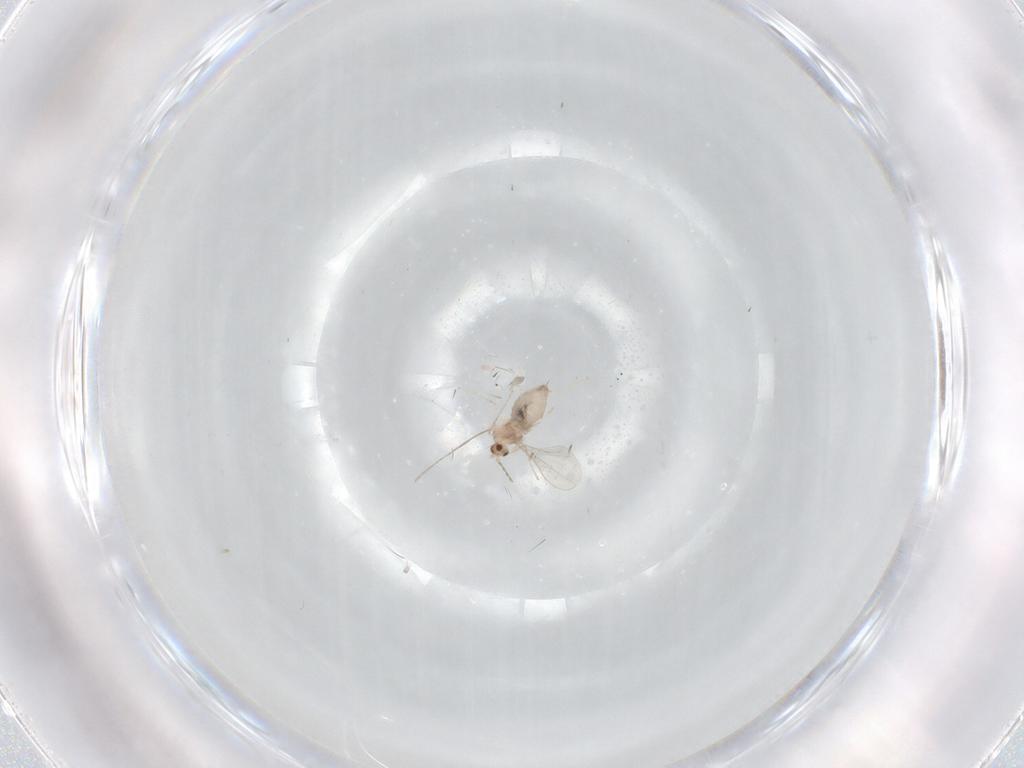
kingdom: Animalia
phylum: Arthropoda
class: Insecta
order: Diptera
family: Cecidomyiidae
